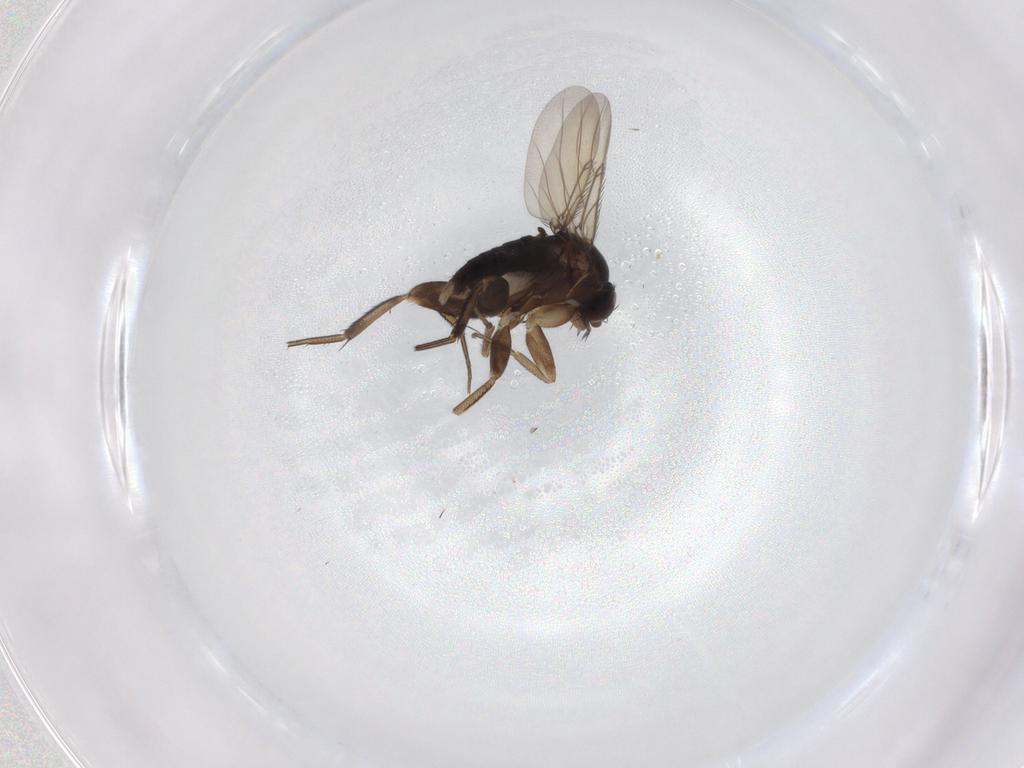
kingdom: Animalia
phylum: Arthropoda
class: Insecta
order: Diptera
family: Phoridae
